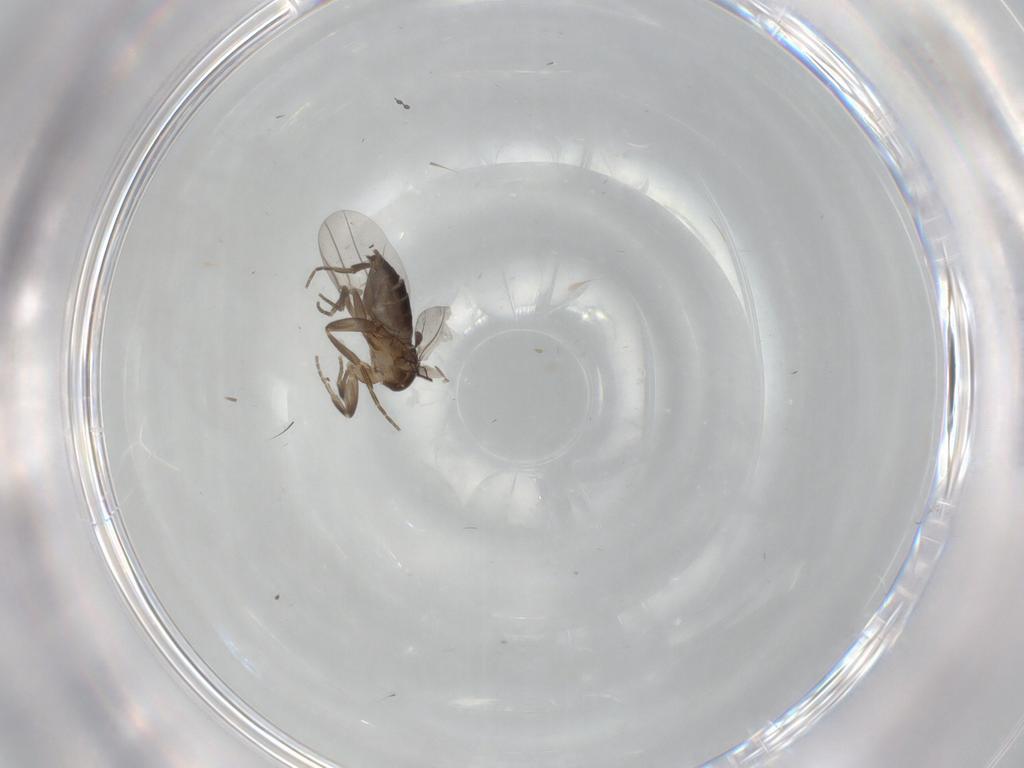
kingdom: Animalia
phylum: Arthropoda
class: Insecta
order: Diptera
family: Phoridae
